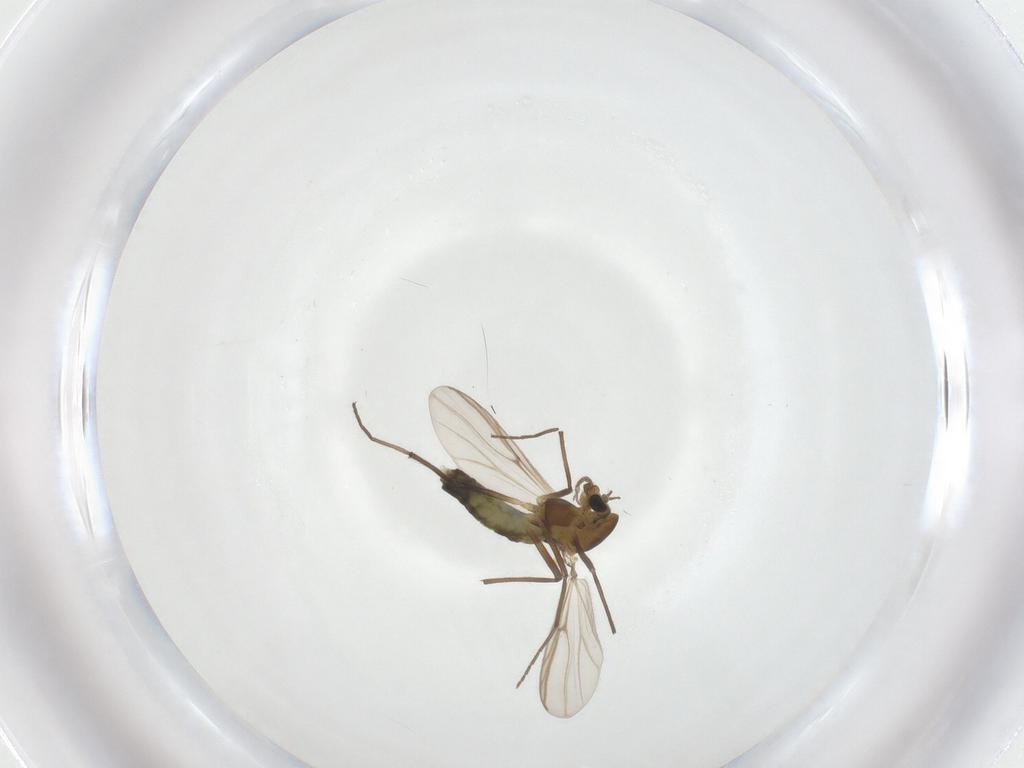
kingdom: Animalia
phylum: Arthropoda
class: Insecta
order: Diptera
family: Chironomidae
